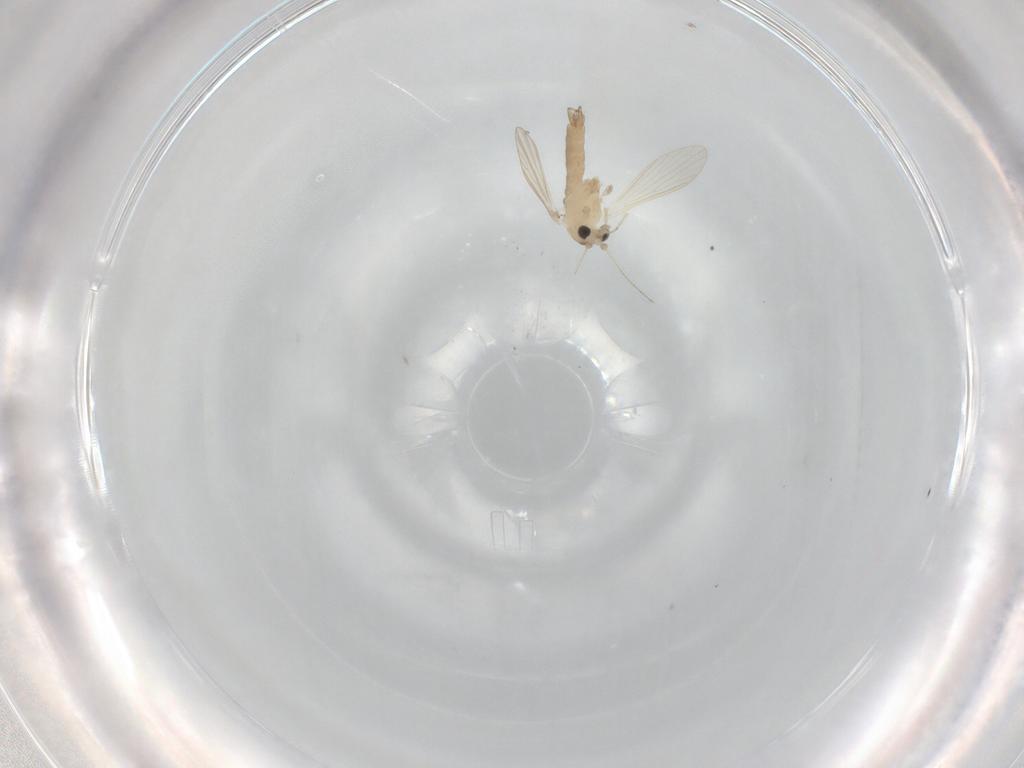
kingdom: Animalia
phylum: Arthropoda
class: Insecta
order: Diptera
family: Psychodidae
